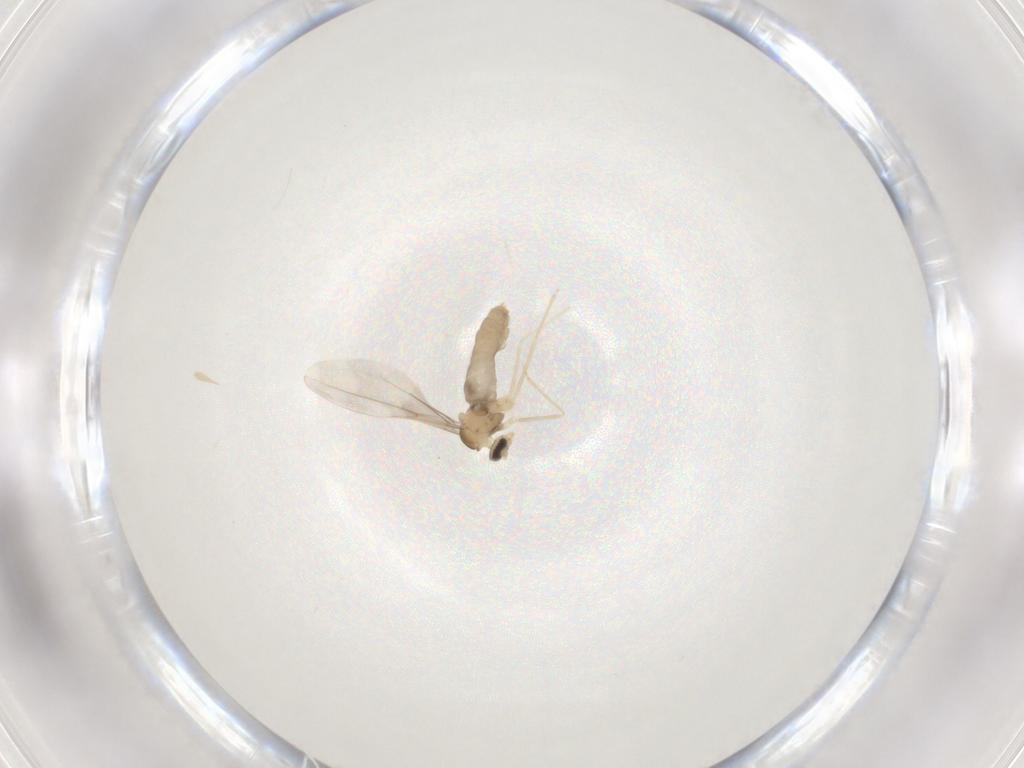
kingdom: Animalia
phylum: Arthropoda
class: Insecta
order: Diptera
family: Cecidomyiidae
